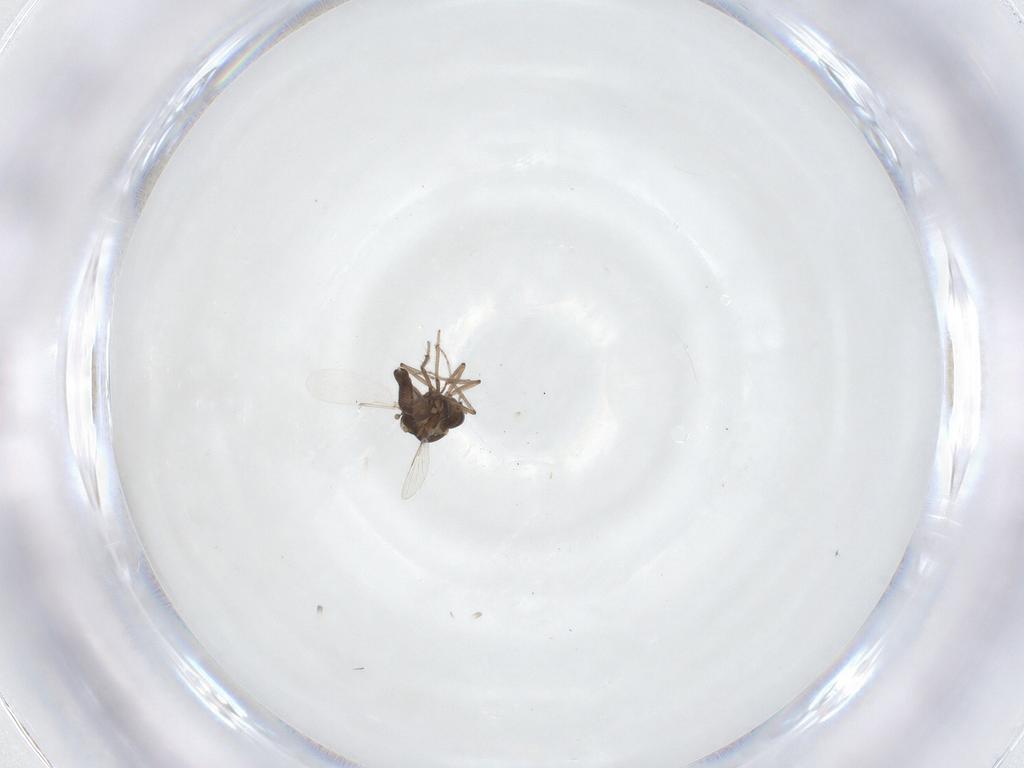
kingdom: Animalia
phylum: Arthropoda
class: Insecta
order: Diptera
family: Ceratopogonidae
